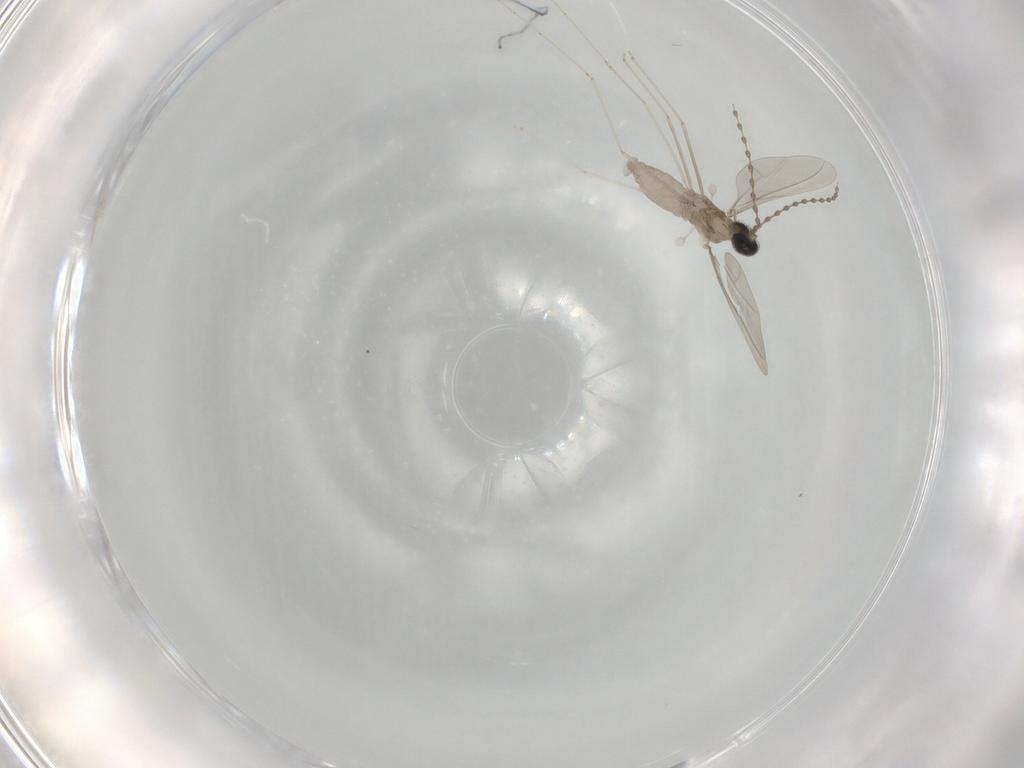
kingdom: Animalia
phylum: Arthropoda
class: Insecta
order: Diptera
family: Cecidomyiidae
